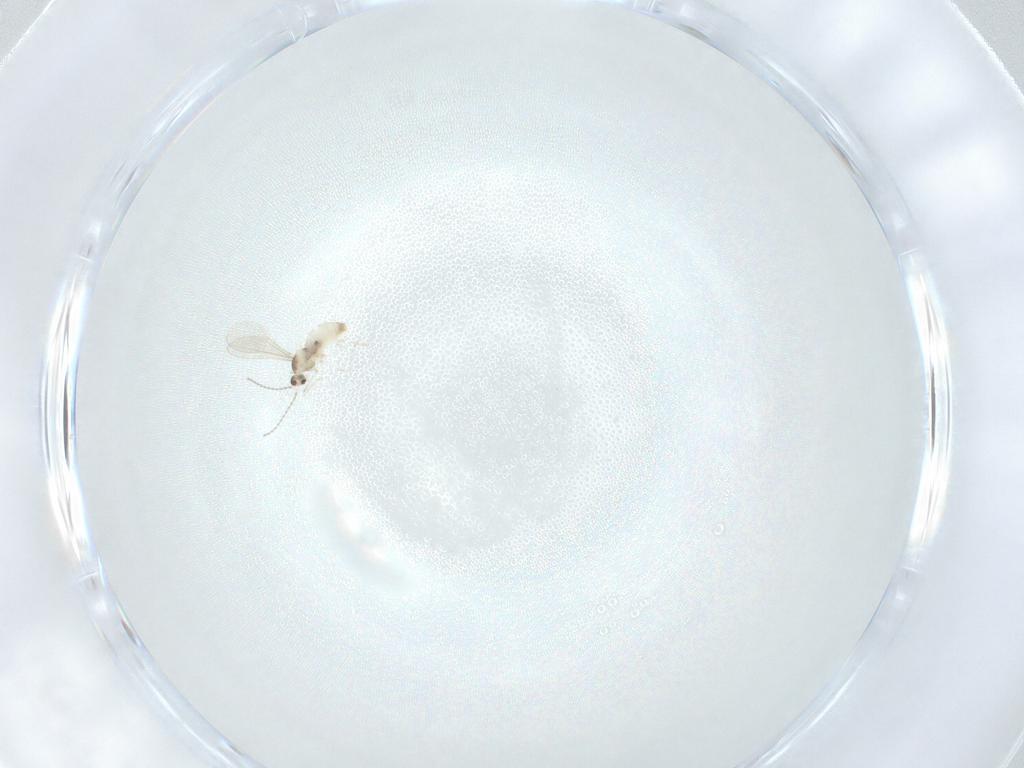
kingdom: Animalia
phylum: Arthropoda
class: Insecta
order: Diptera
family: Cecidomyiidae
